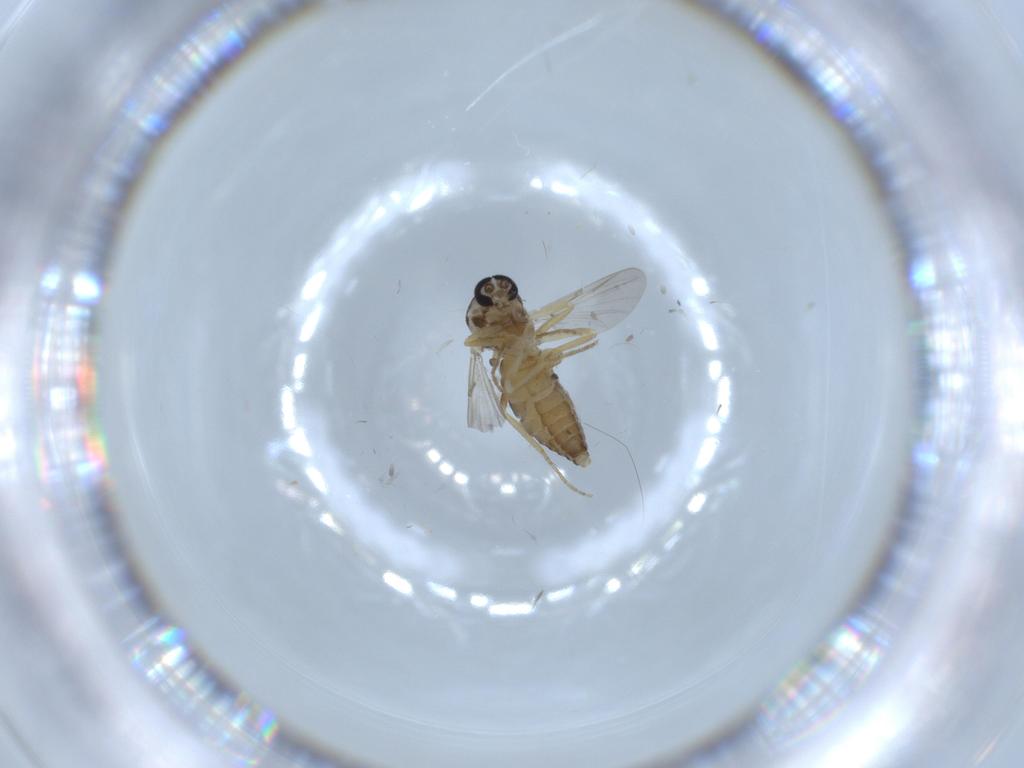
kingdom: Animalia
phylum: Arthropoda
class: Insecta
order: Diptera
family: Ceratopogonidae
